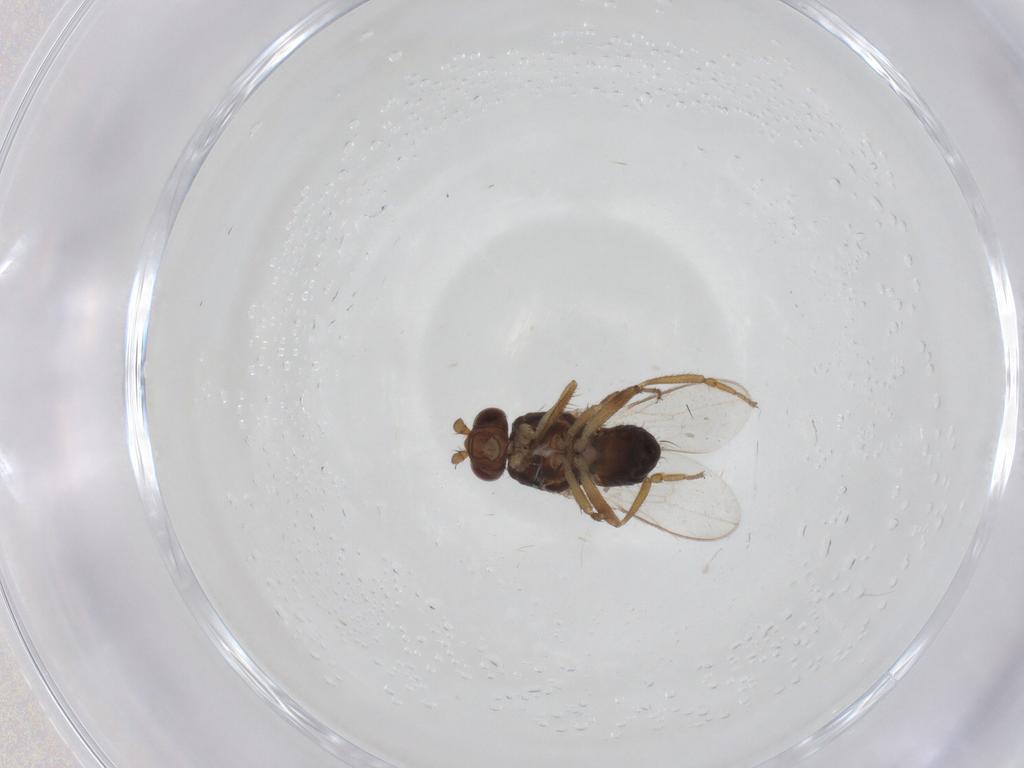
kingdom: Animalia
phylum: Arthropoda
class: Insecta
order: Diptera
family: Sphaeroceridae
